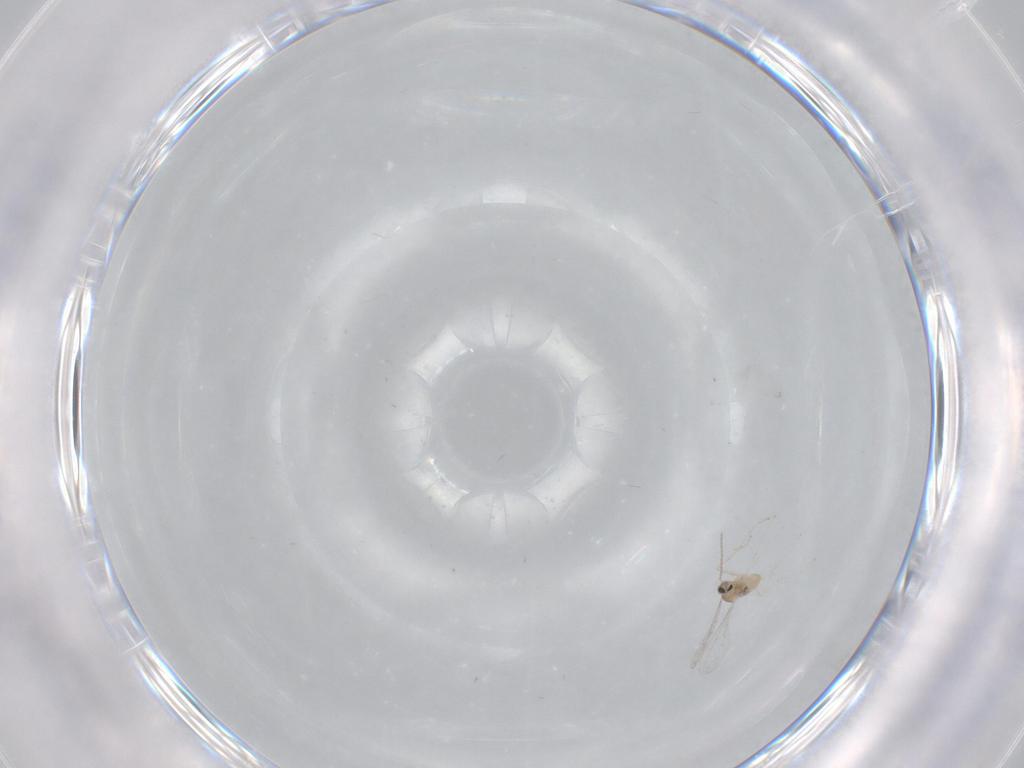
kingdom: Animalia
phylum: Arthropoda
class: Insecta
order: Diptera
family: Cecidomyiidae
